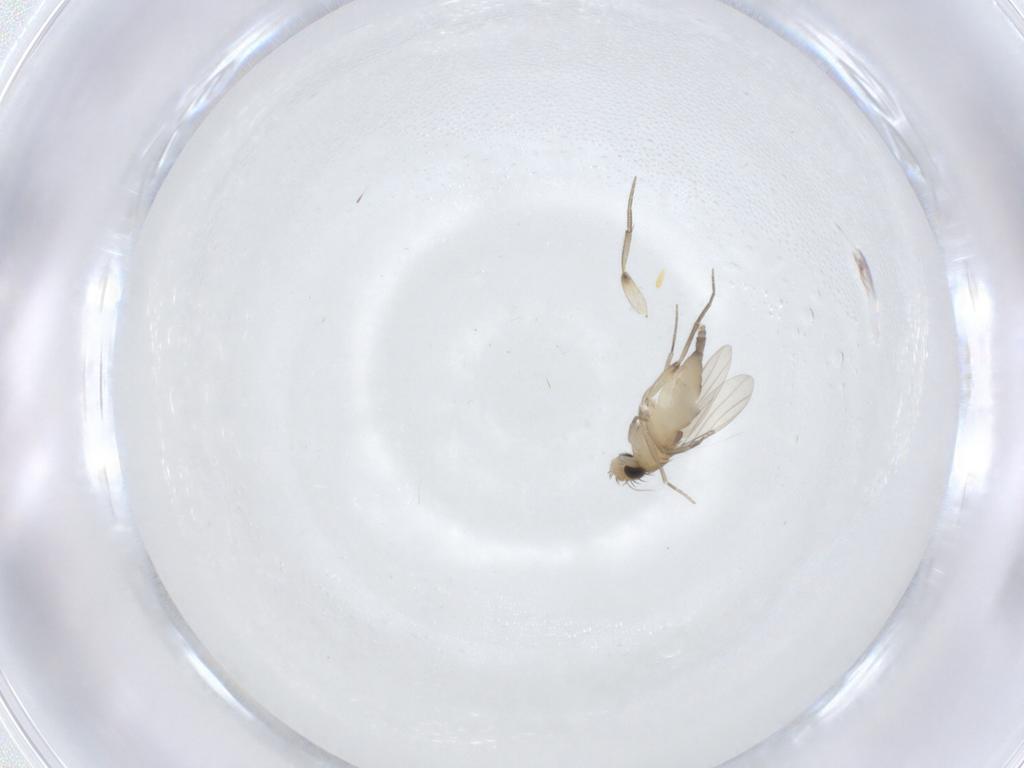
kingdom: Animalia
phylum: Arthropoda
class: Insecta
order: Diptera
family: Phoridae
